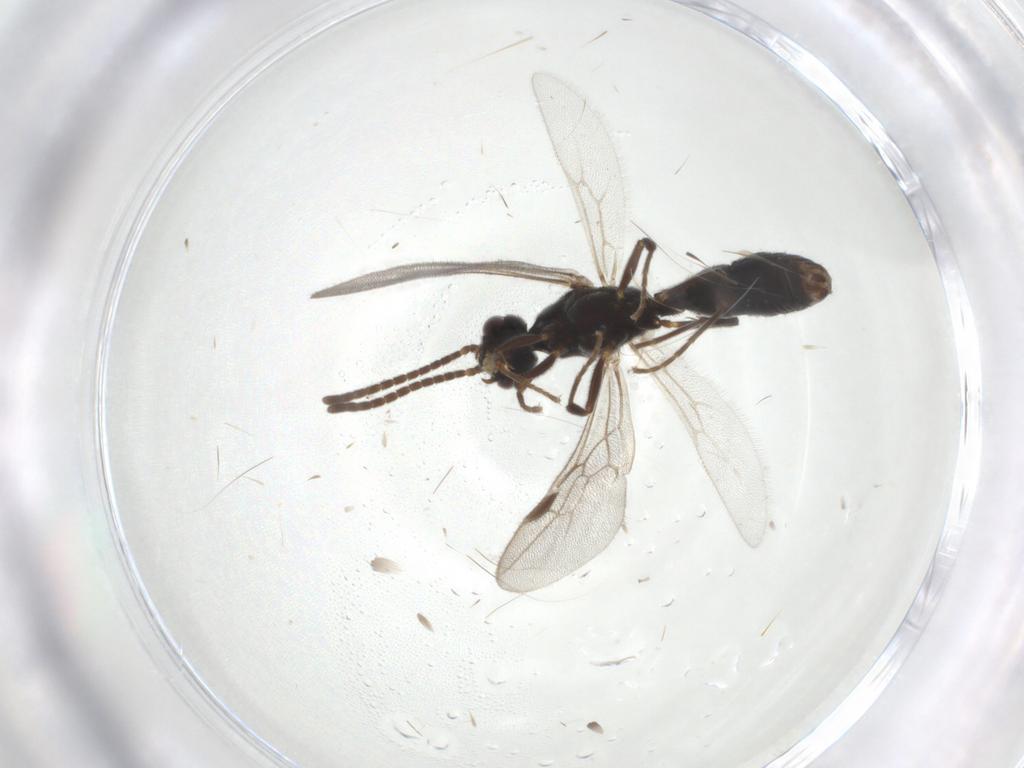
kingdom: Animalia
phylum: Arthropoda
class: Insecta
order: Hymenoptera
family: Formicidae
